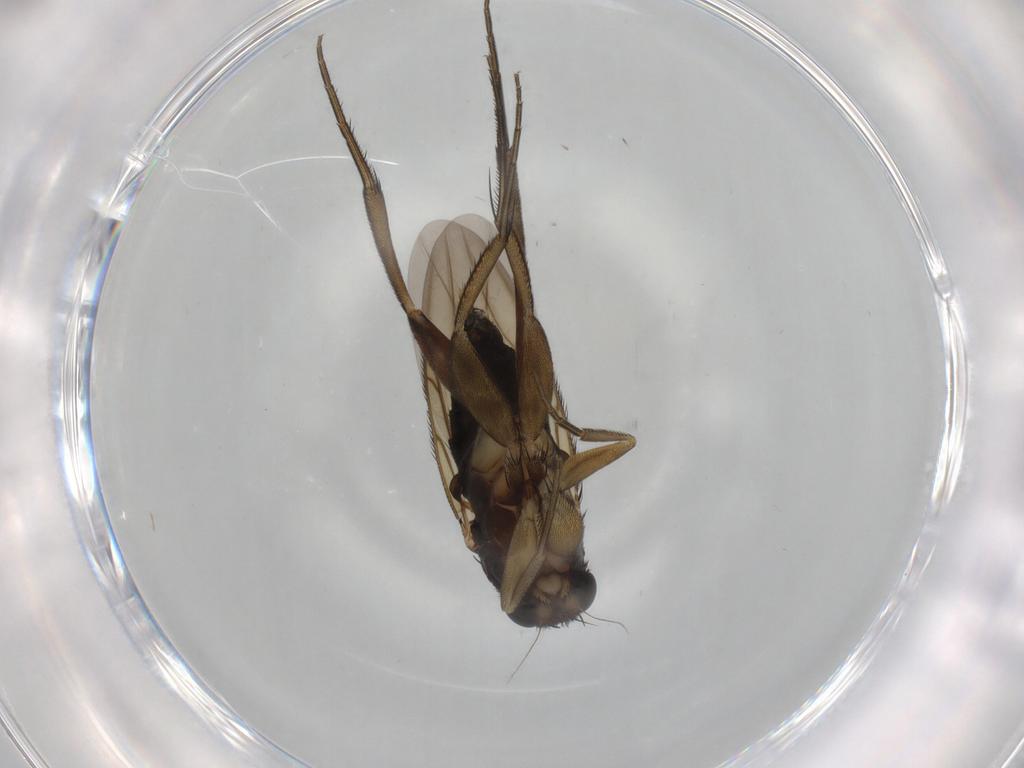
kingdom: Animalia
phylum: Arthropoda
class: Insecta
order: Diptera
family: Phoridae
